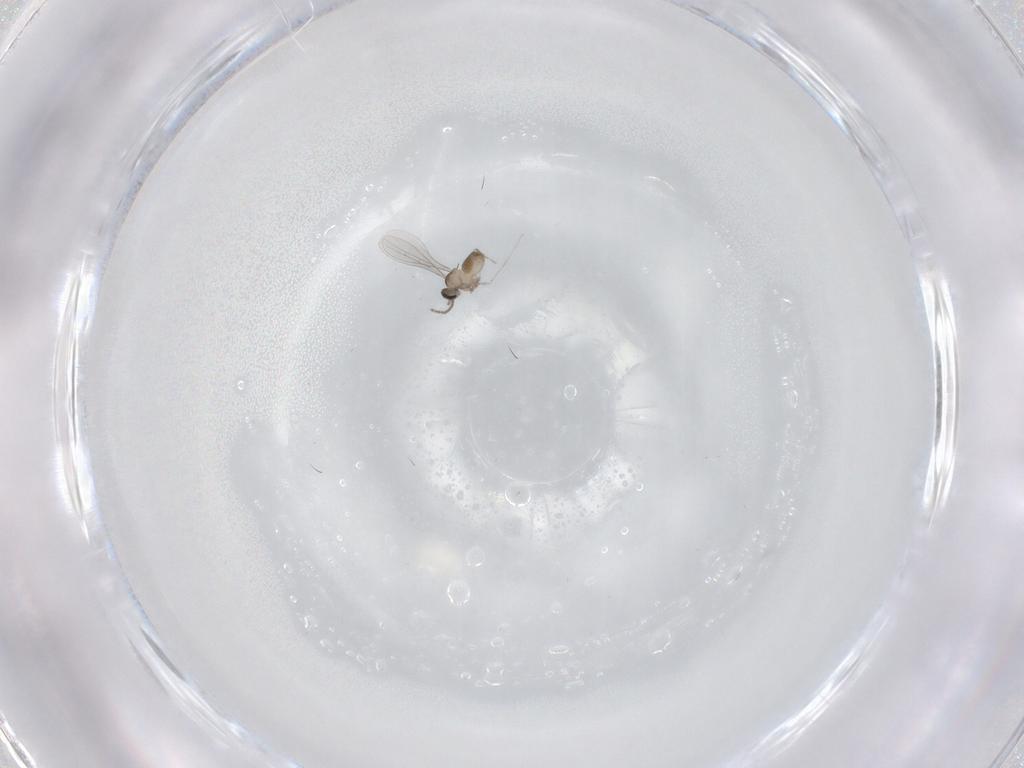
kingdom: Animalia
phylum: Arthropoda
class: Insecta
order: Diptera
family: Cecidomyiidae
